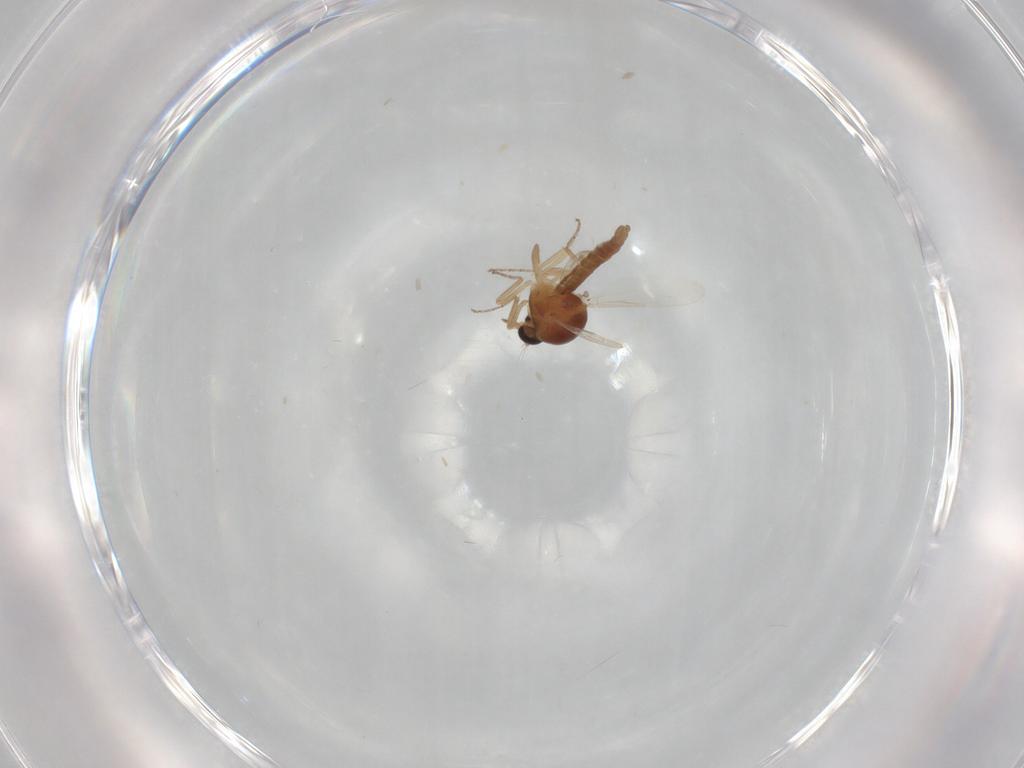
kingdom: Animalia
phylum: Arthropoda
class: Insecta
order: Diptera
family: Ceratopogonidae
